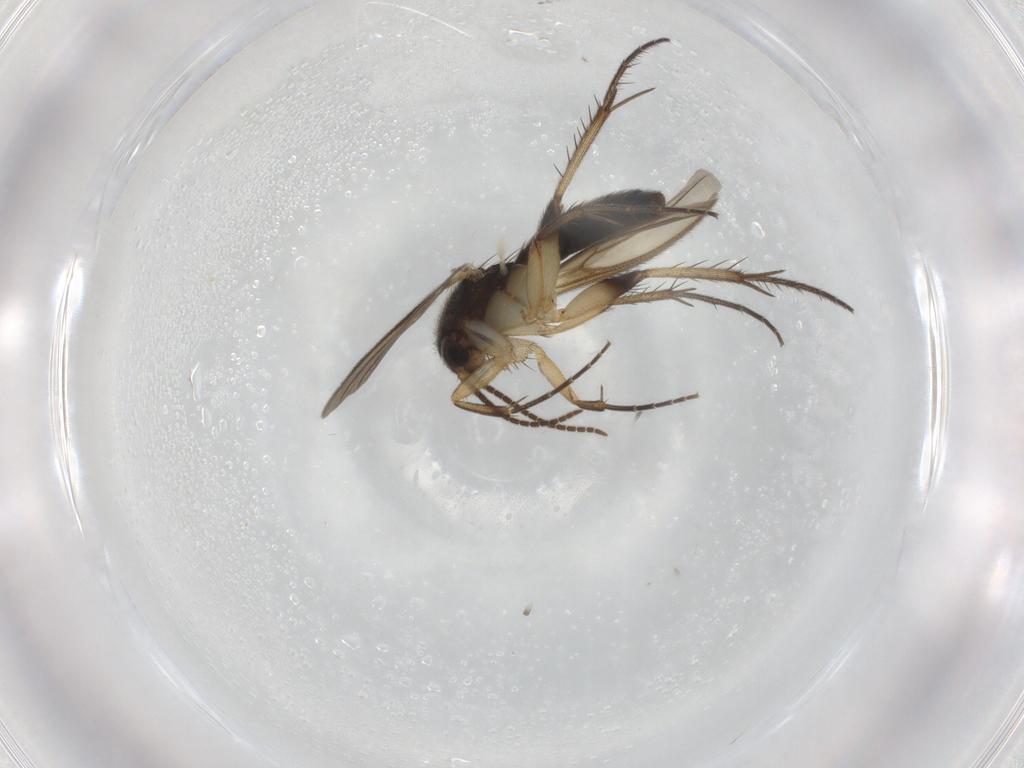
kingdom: Animalia
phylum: Arthropoda
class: Insecta
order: Diptera
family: Mycetophilidae
